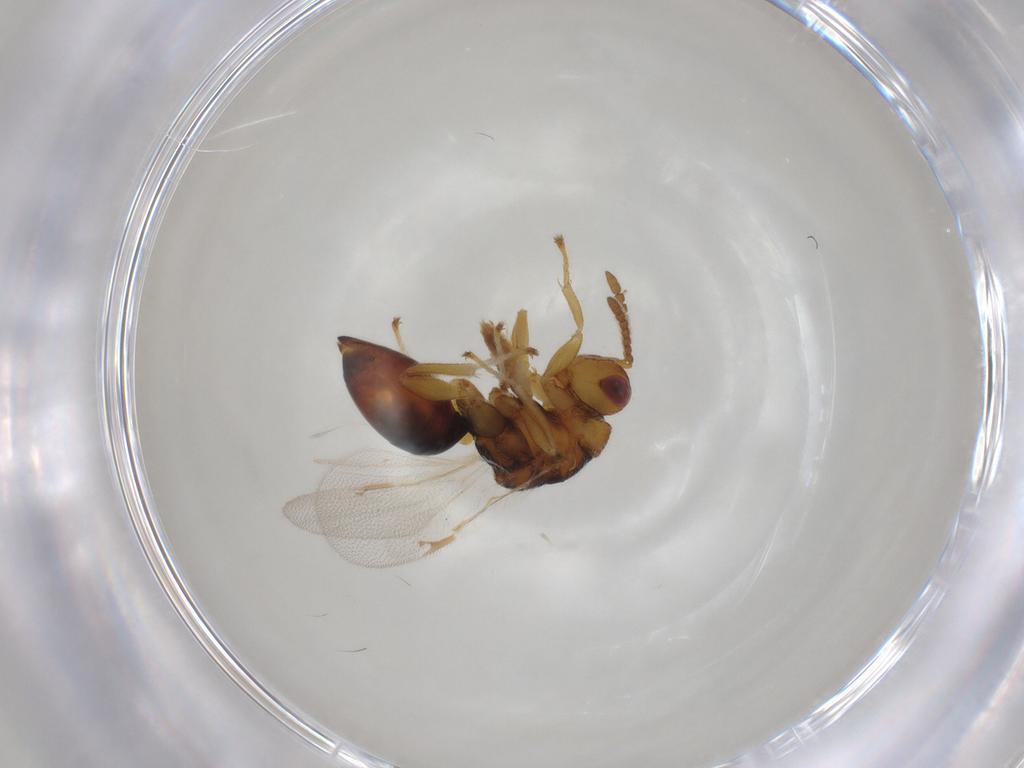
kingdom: Animalia
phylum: Arthropoda
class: Insecta
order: Hymenoptera
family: Eurytomidae
